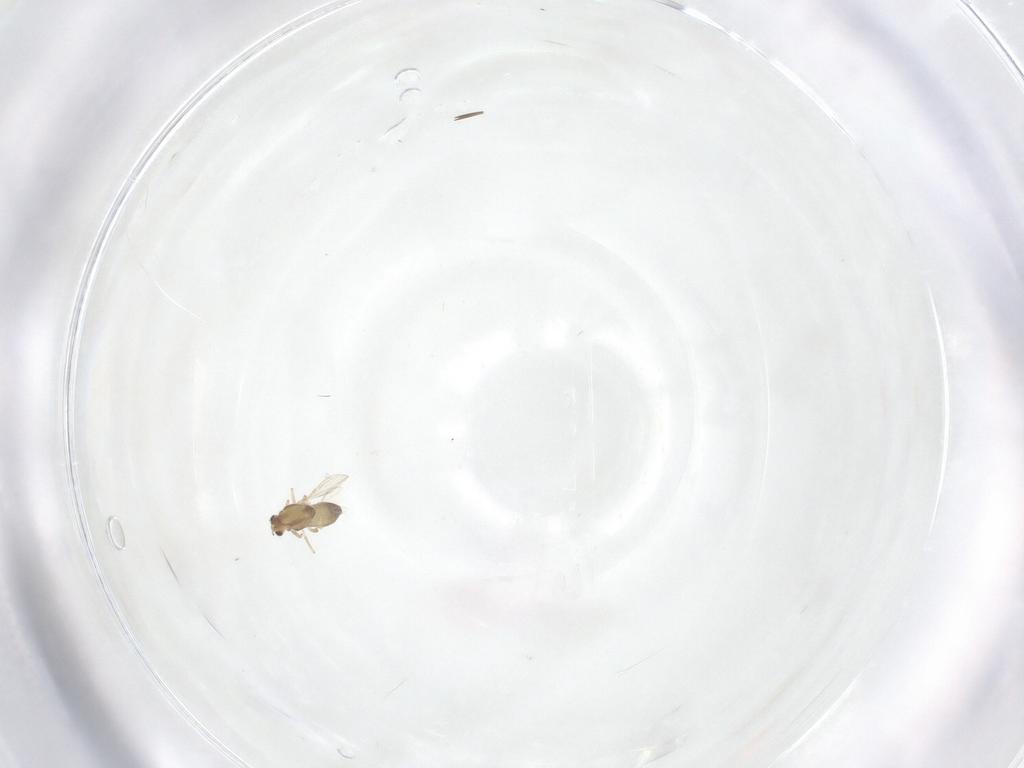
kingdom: Animalia
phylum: Arthropoda
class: Insecta
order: Diptera
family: Chironomidae
